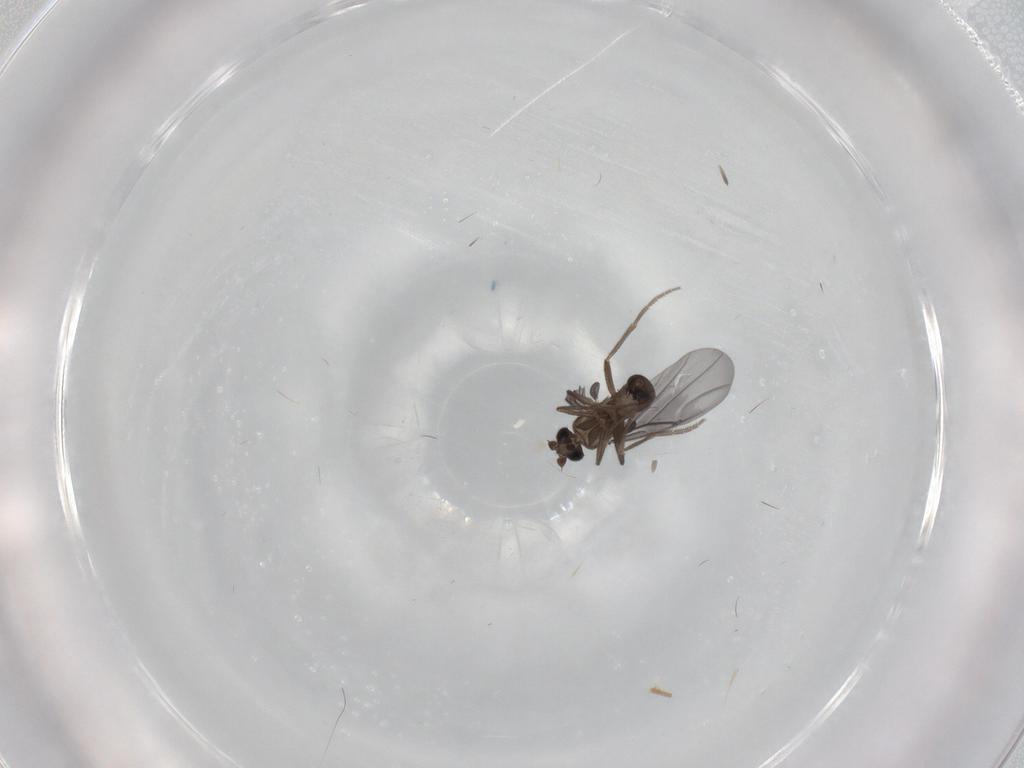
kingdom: Animalia
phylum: Arthropoda
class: Insecta
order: Diptera
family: Phoridae
